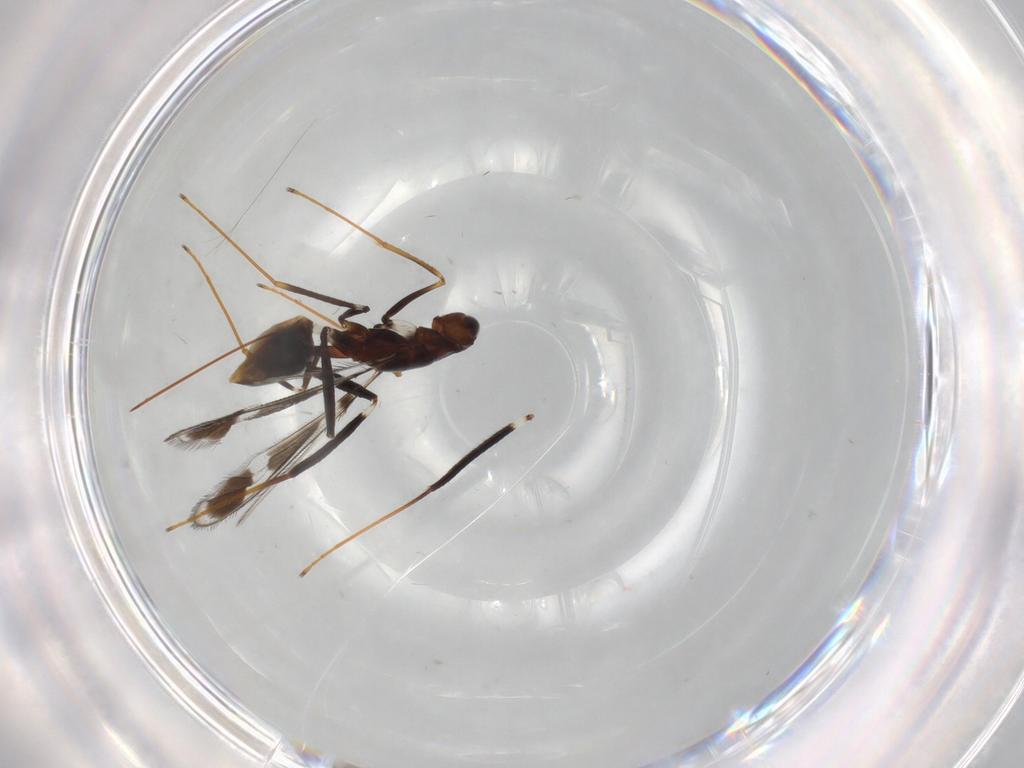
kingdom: Animalia
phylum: Arthropoda
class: Insecta
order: Hymenoptera
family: Mymaridae
